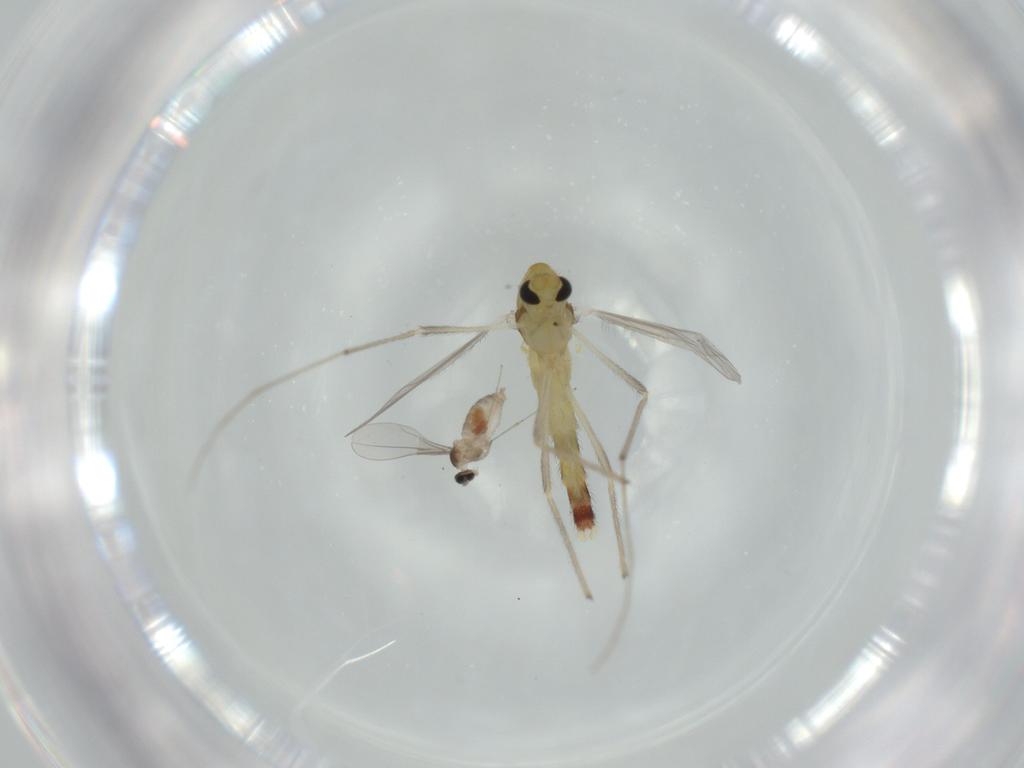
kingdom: Animalia
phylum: Arthropoda
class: Insecta
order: Diptera
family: Chironomidae
